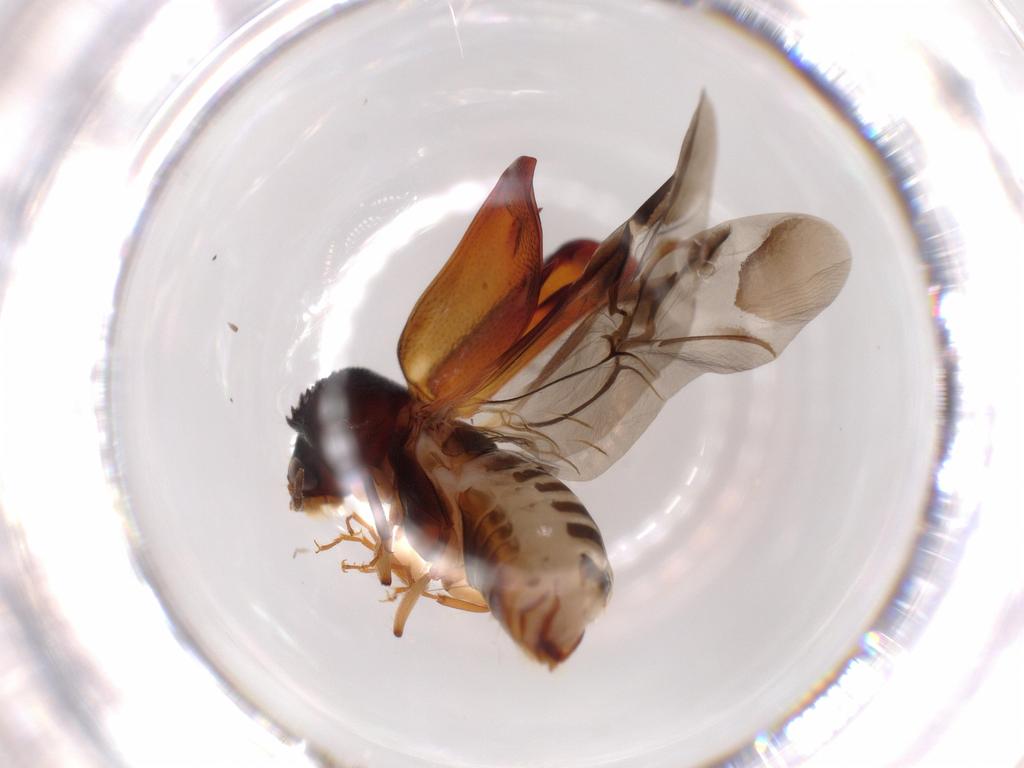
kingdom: Animalia
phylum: Arthropoda
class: Insecta
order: Coleoptera
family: Bostrichidae
